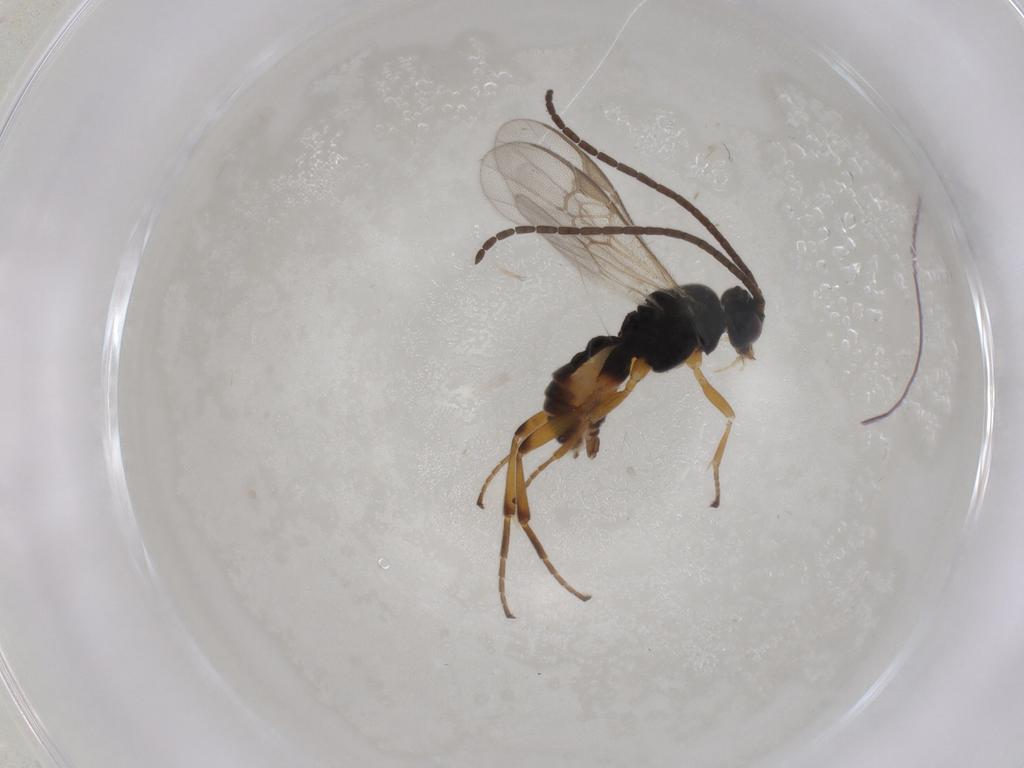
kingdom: Animalia
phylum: Arthropoda
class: Insecta
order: Hymenoptera
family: Braconidae
